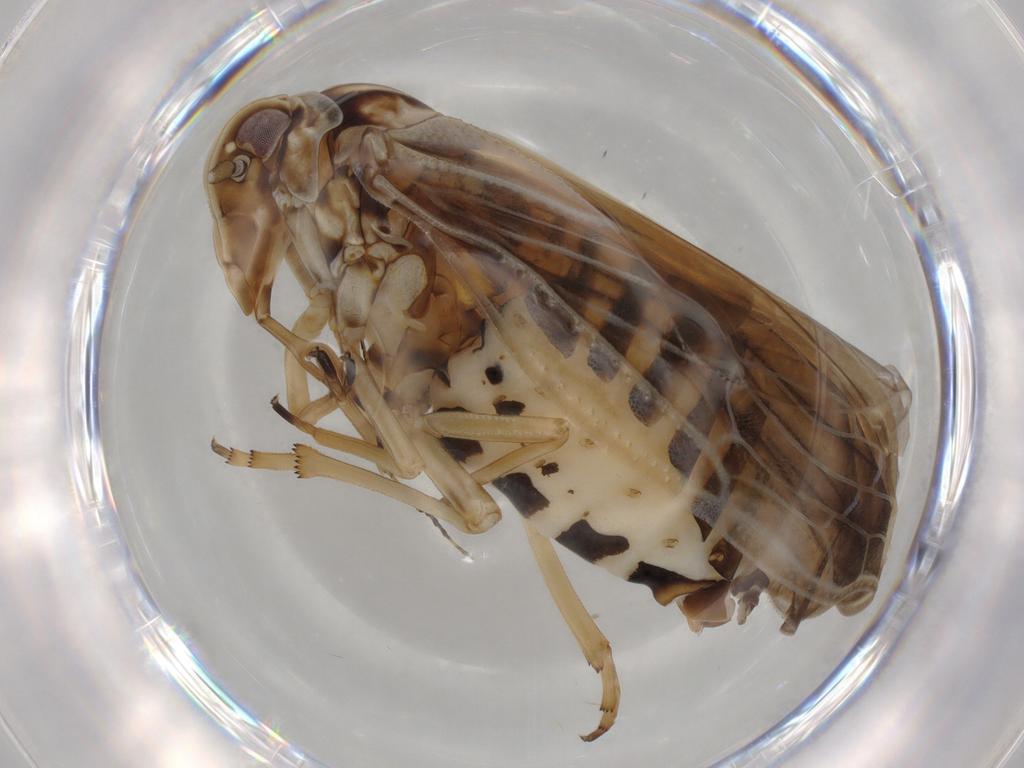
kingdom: Animalia
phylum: Arthropoda
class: Insecta
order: Hemiptera
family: Meenoplidae
